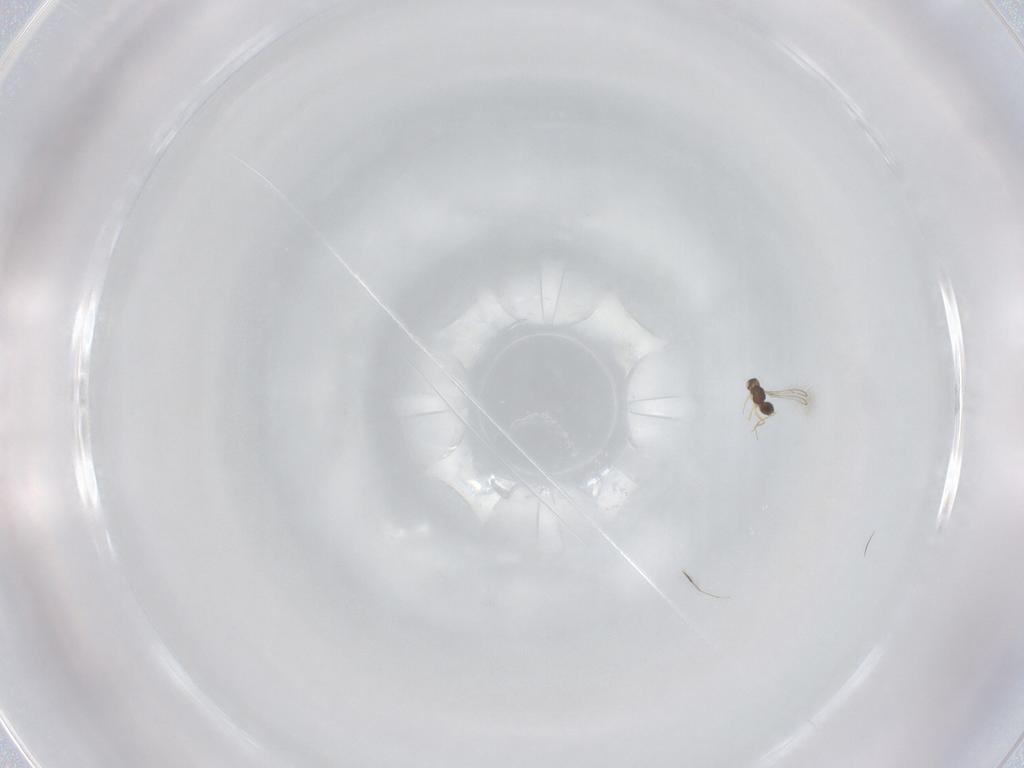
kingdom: Animalia
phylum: Arthropoda
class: Insecta
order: Hymenoptera
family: Mymaridae
